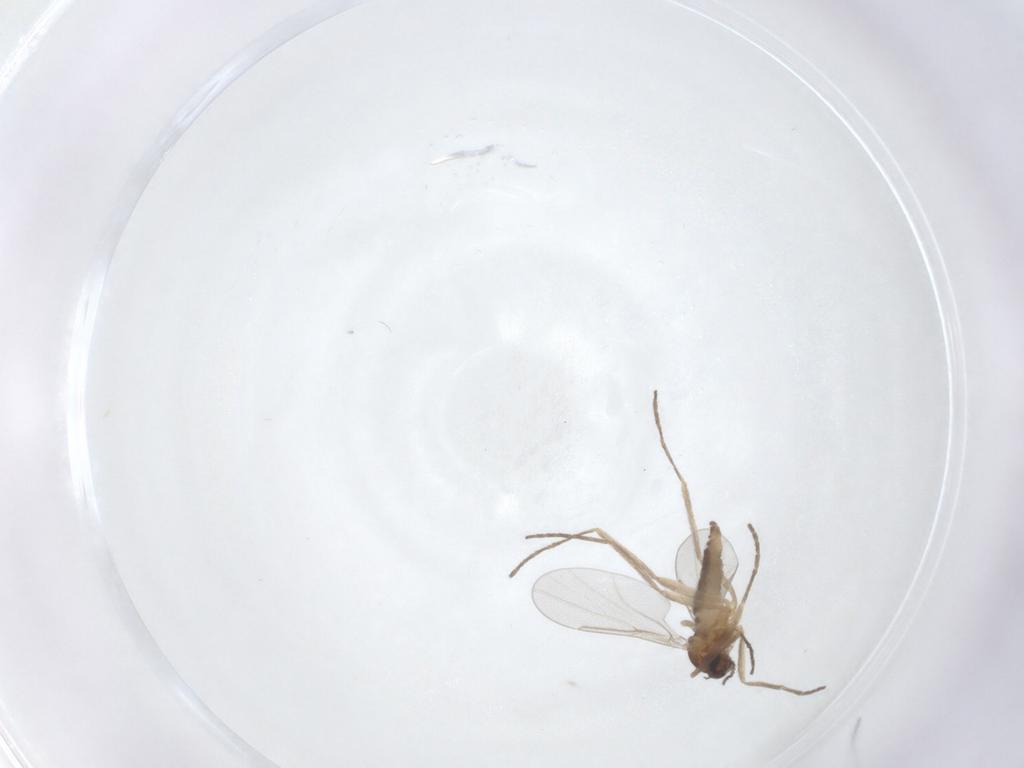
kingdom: Animalia
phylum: Arthropoda
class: Insecta
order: Diptera
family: Cecidomyiidae
